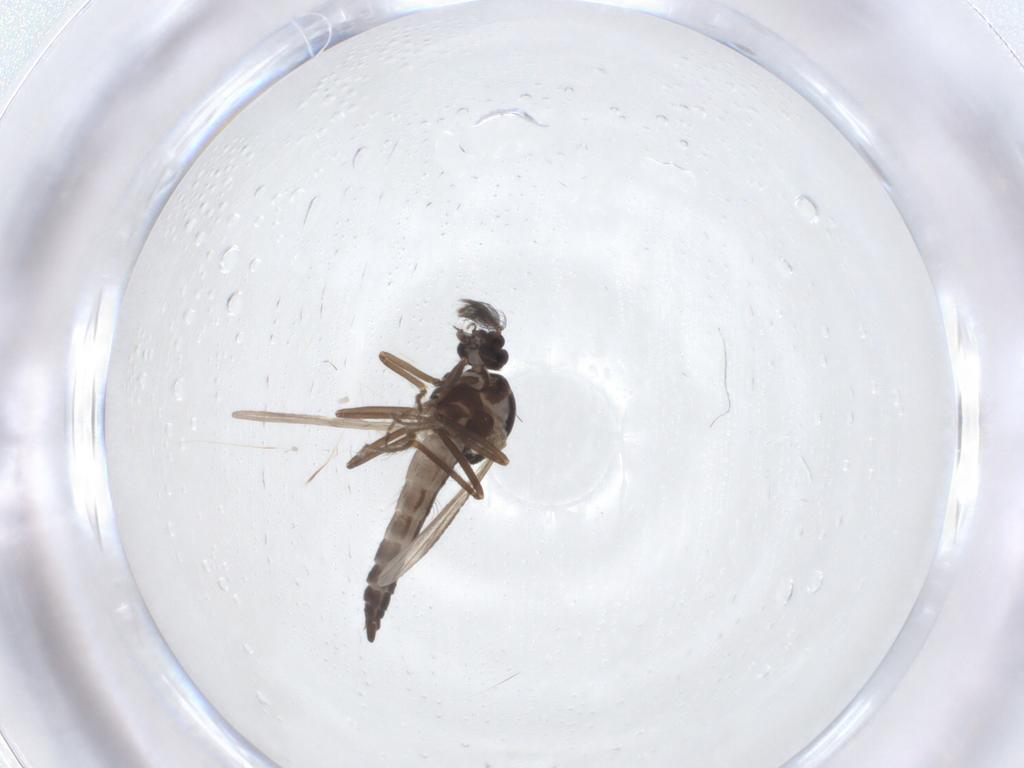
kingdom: Animalia
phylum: Arthropoda
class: Insecta
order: Diptera
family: Ceratopogonidae
